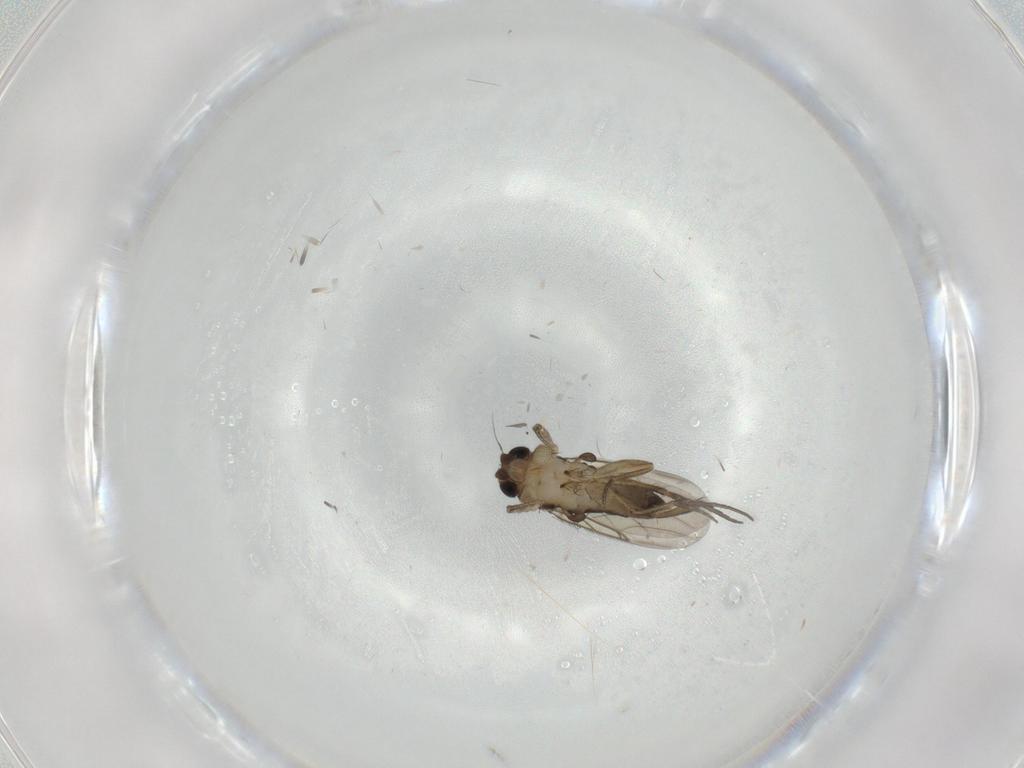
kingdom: Animalia
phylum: Arthropoda
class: Insecta
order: Diptera
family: Phoridae
